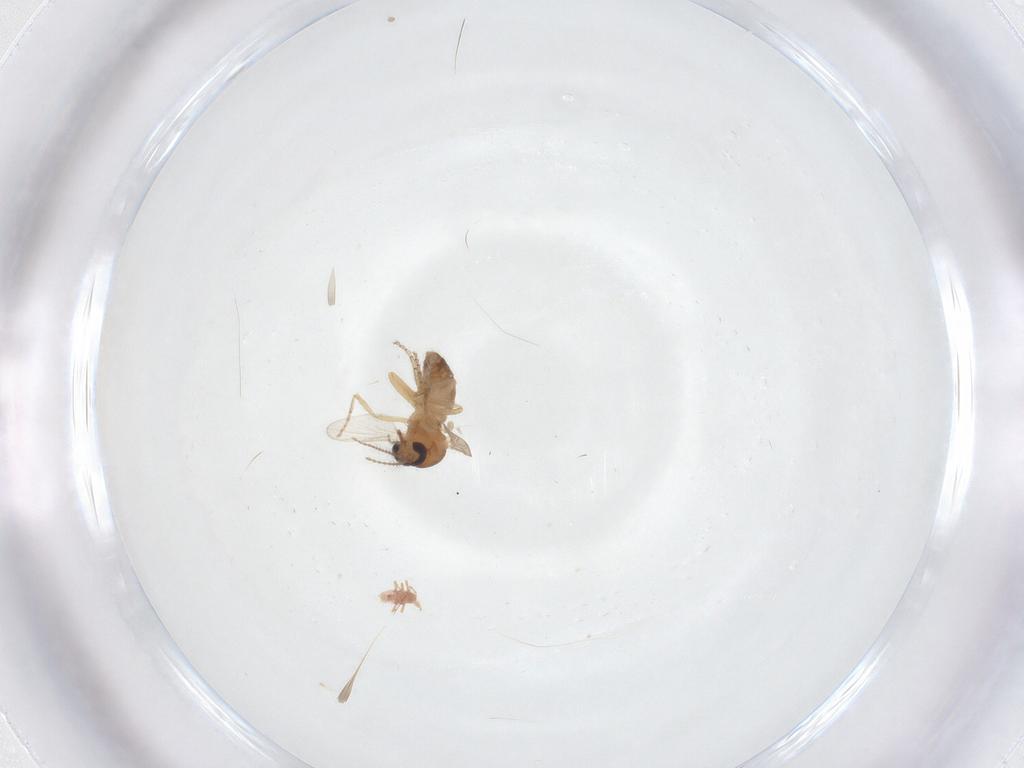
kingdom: Animalia
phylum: Arthropoda
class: Insecta
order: Diptera
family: Ceratopogonidae
